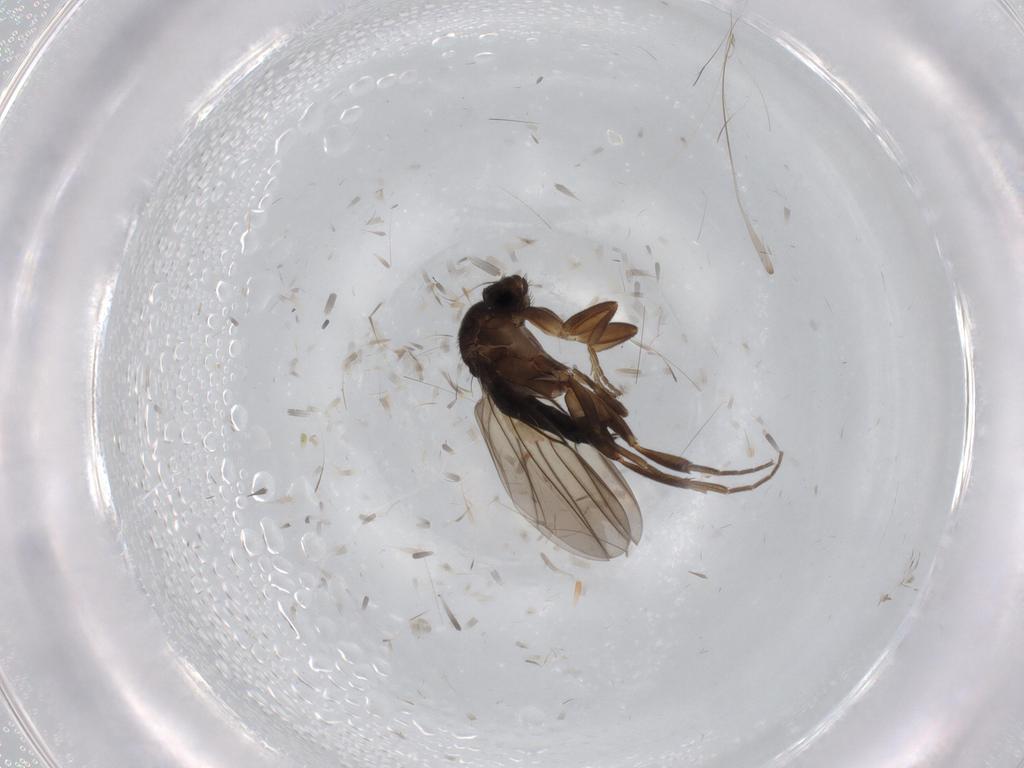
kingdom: Animalia
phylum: Arthropoda
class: Insecta
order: Diptera
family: Phoridae
